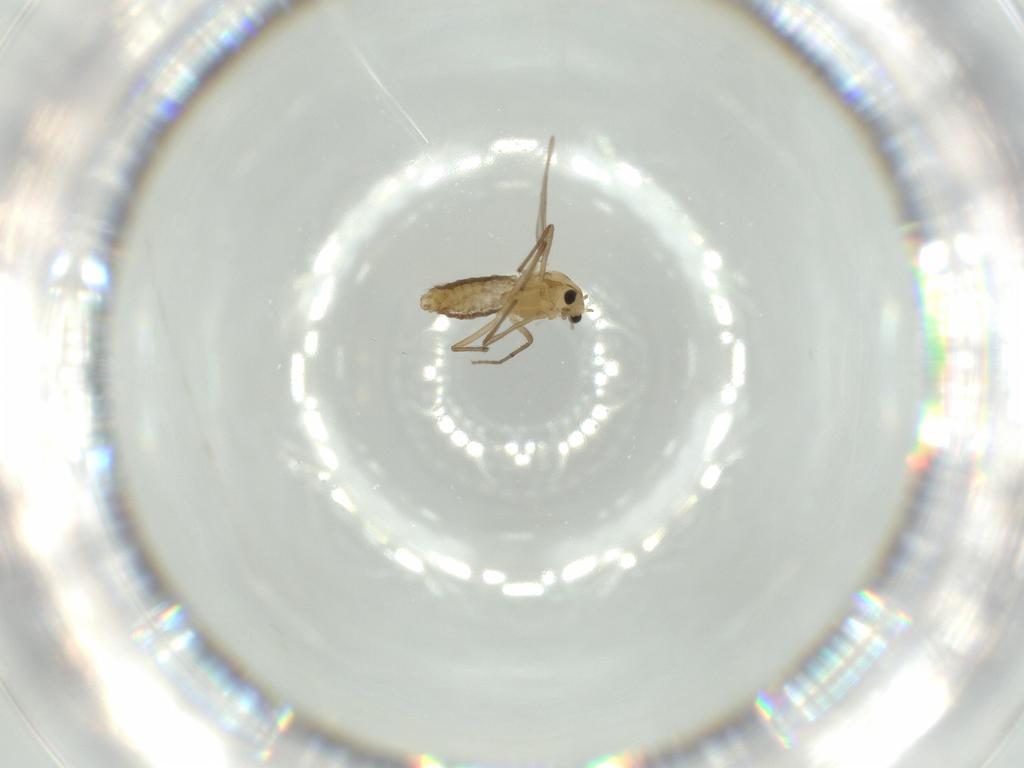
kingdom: Animalia
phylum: Arthropoda
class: Insecta
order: Diptera
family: Chironomidae
